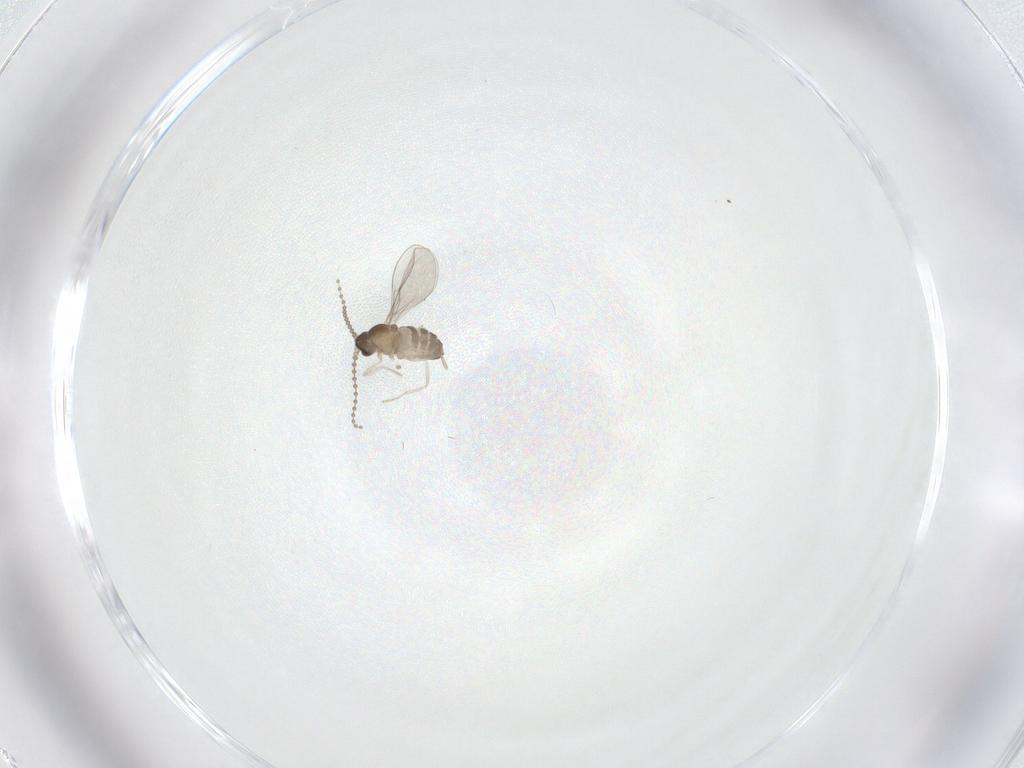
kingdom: Animalia
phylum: Arthropoda
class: Insecta
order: Diptera
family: Cecidomyiidae
